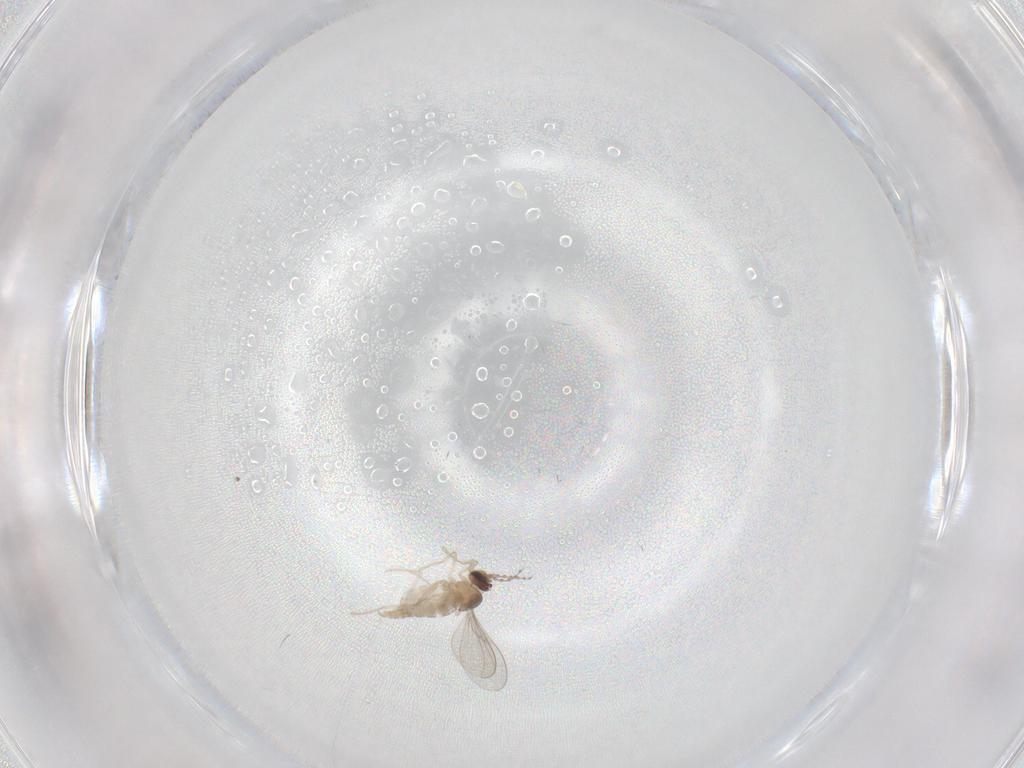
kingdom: Animalia
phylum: Arthropoda
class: Insecta
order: Diptera
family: Cecidomyiidae
